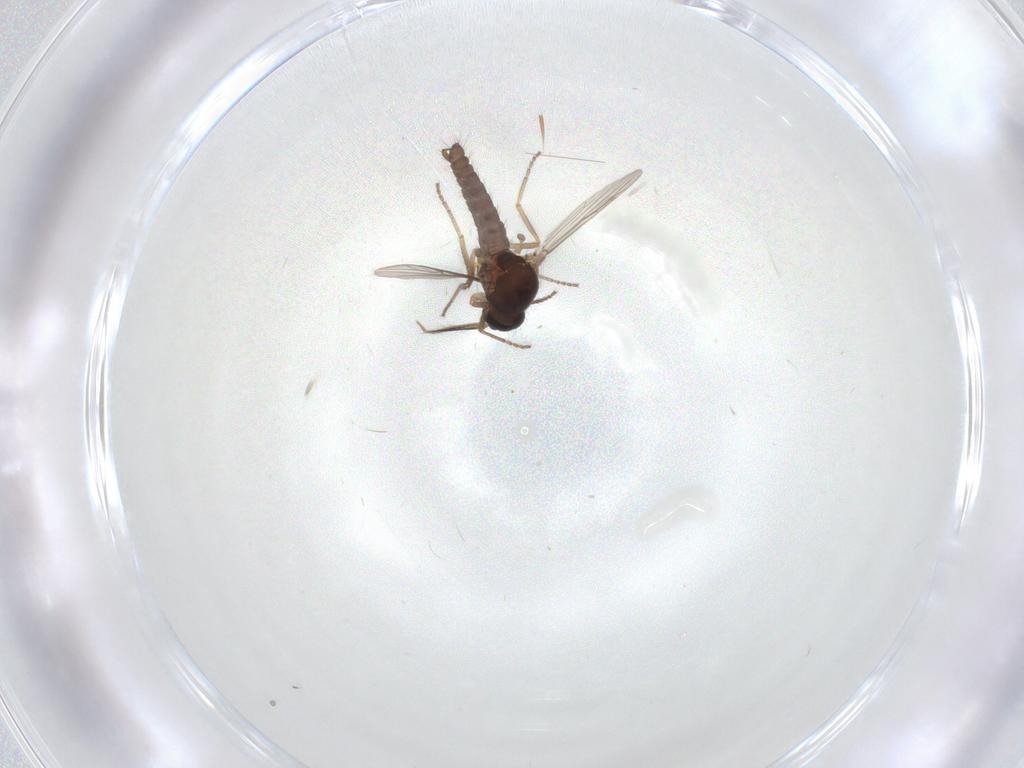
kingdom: Animalia
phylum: Arthropoda
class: Insecta
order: Diptera
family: Ceratopogonidae
